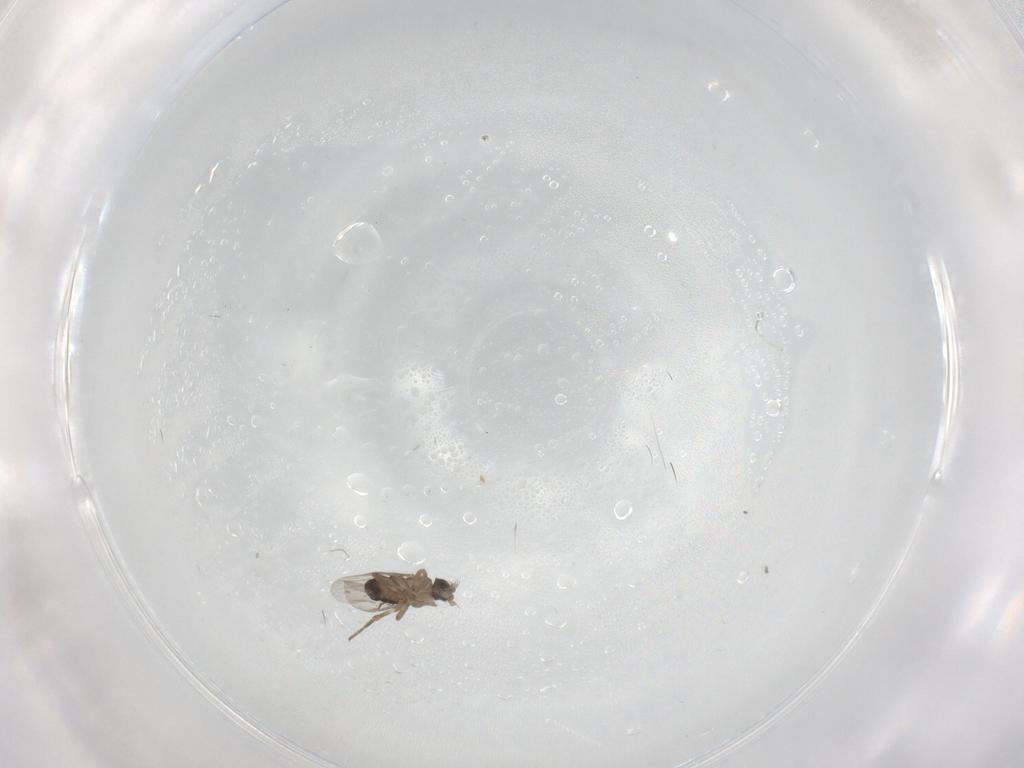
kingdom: Animalia
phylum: Arthropoda
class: Insecta
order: Diptera
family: Phoridae
